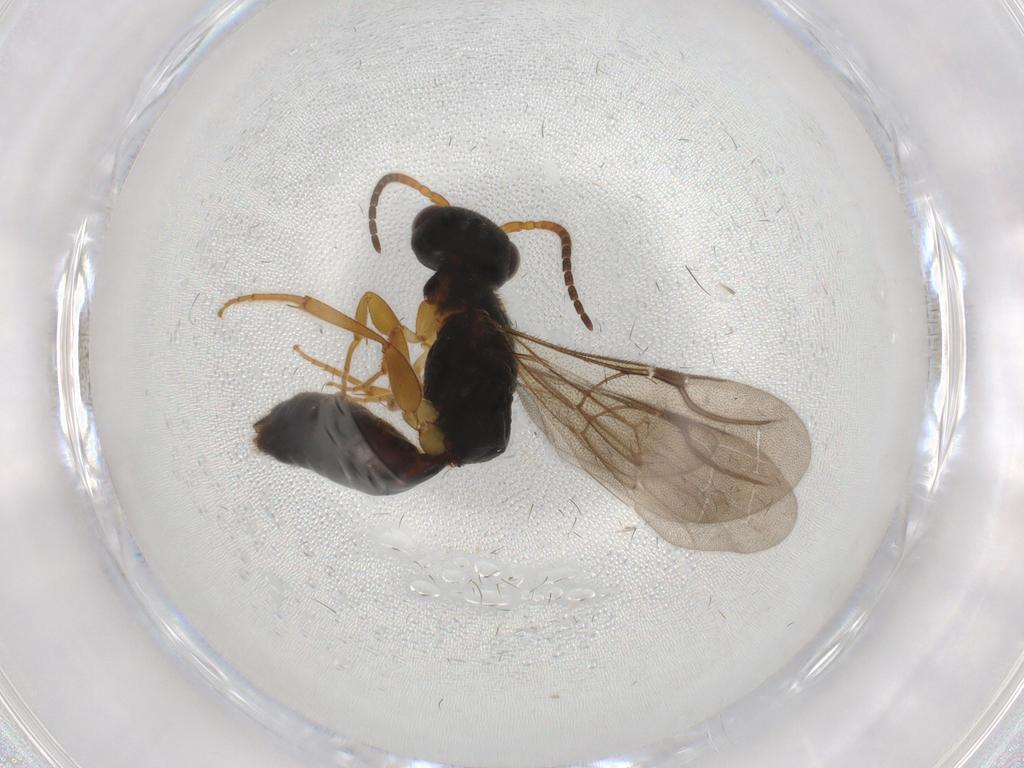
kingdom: Animalia
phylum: Arthropoda
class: Insecta
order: Hymenoptera
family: Bethylidae
